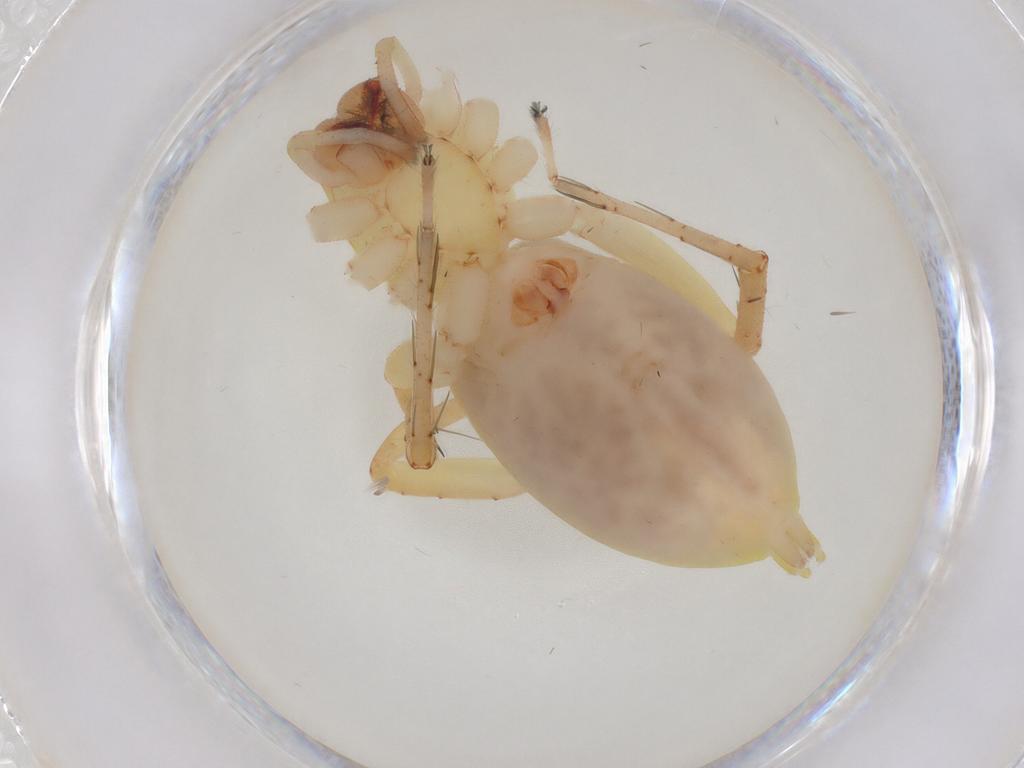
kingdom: Animalia
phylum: Arthropoda
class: Arachnida
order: Araneae
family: Anyphaenidae
